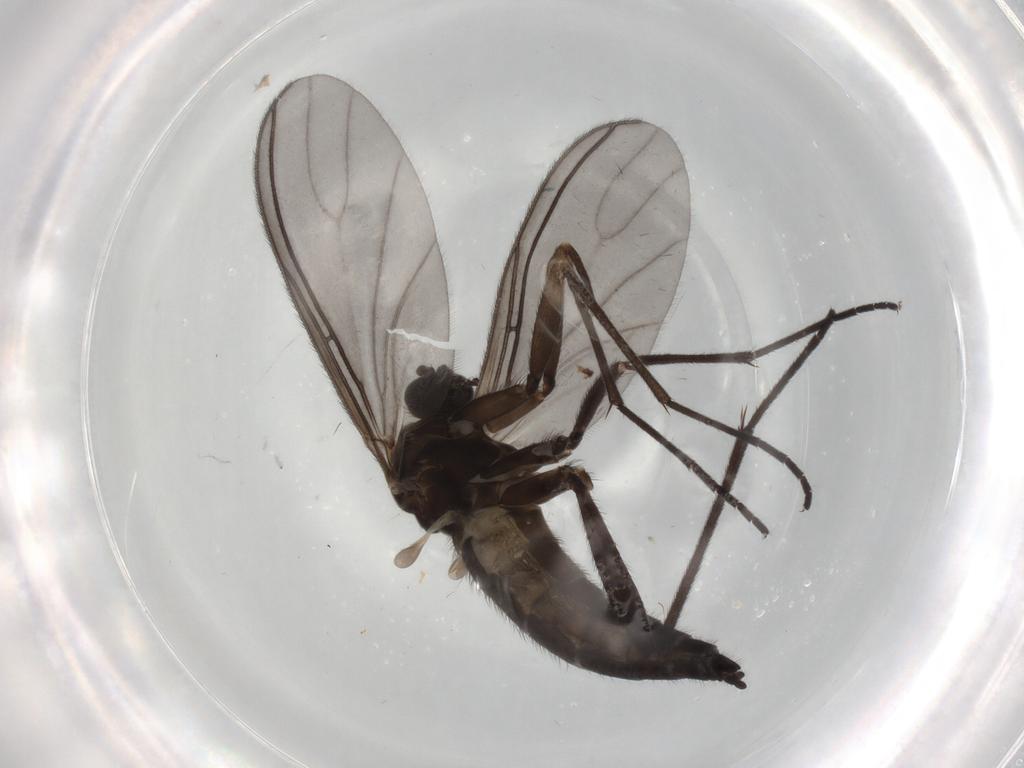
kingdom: Animalia
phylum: Arthropoda
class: Insecta
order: Diptera
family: Sciaridae
